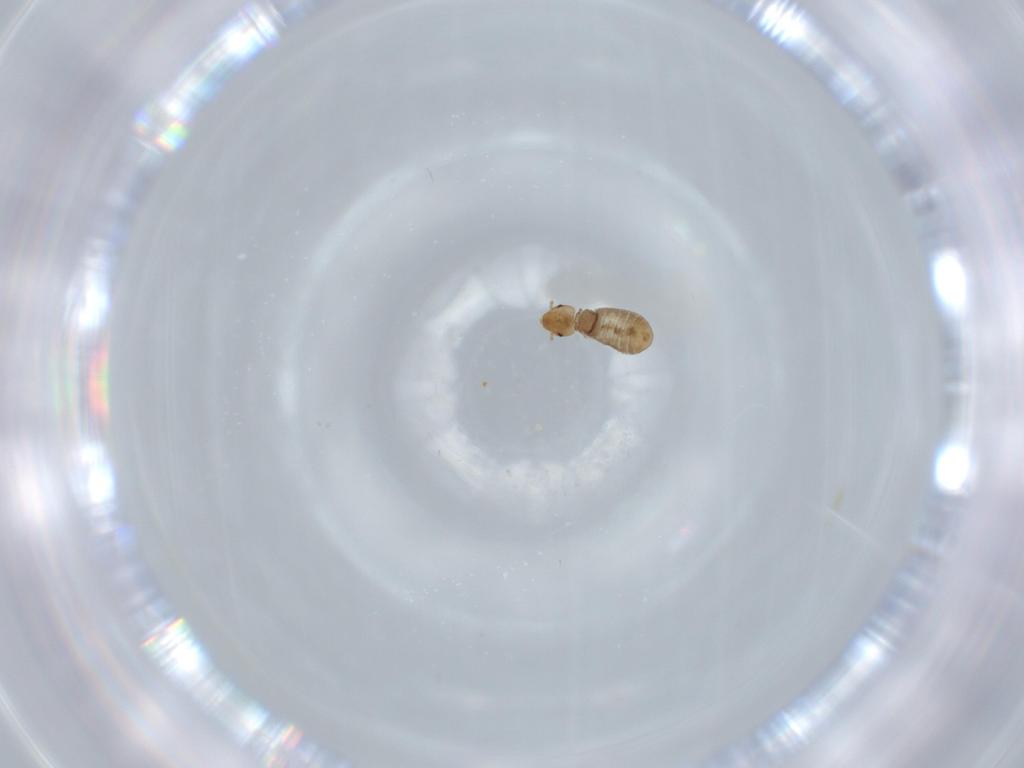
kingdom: Animalia
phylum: Arthropoda
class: Insecta
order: Psocodea
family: Liposcelididae
